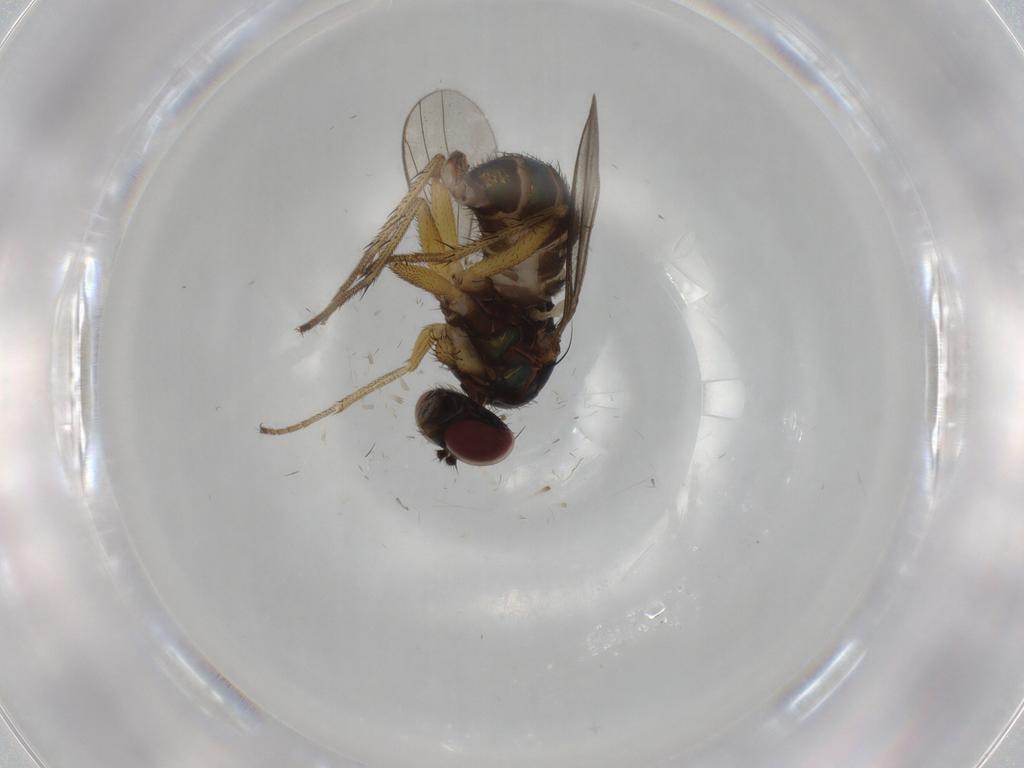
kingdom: Animalia
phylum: Arthropoda
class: Insecta
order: Diptera
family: Dolichopodidae
